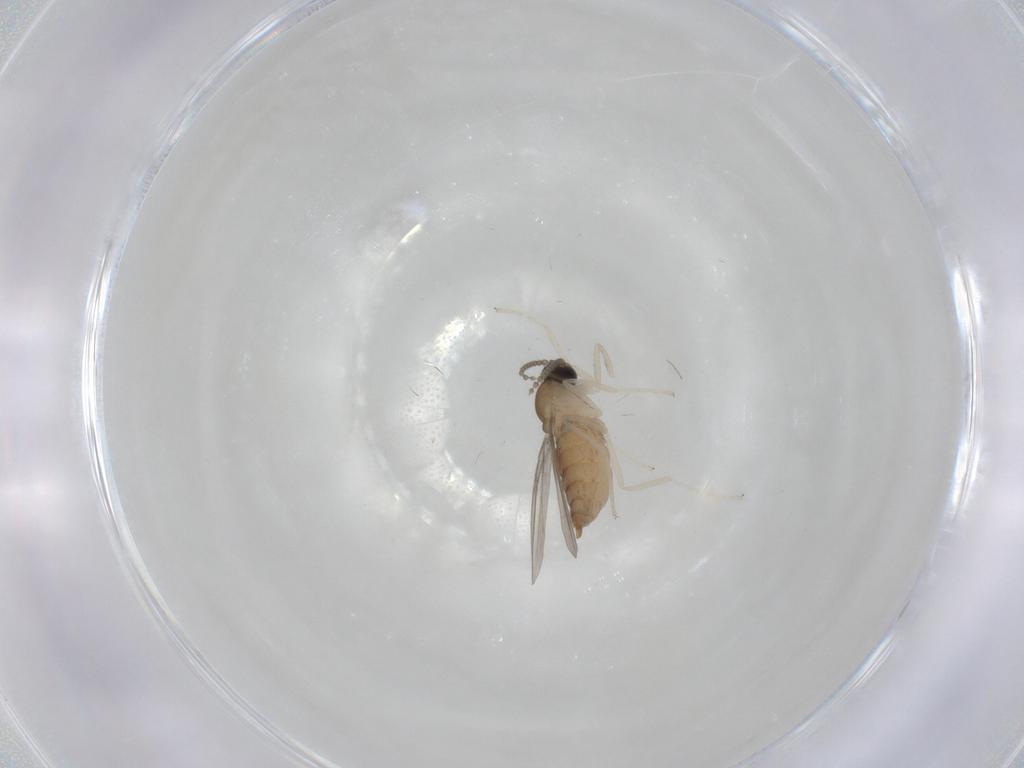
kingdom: Animalia
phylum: Arthropoda
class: Insecta
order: Diptera
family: Cecidomyiidae
